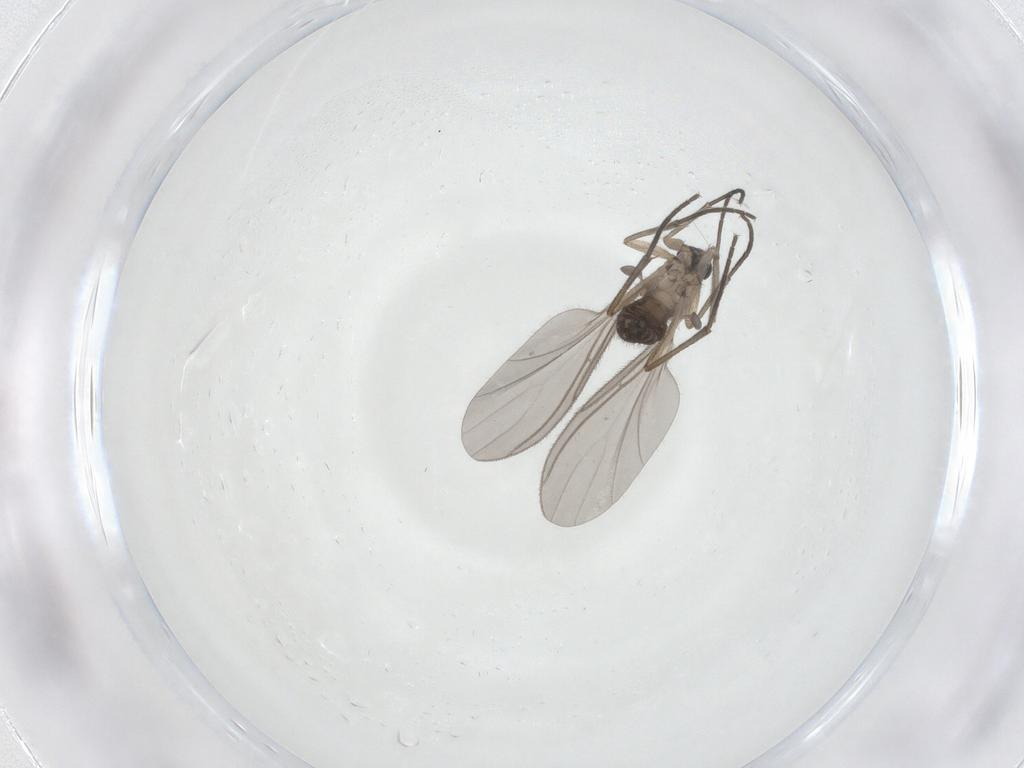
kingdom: Animalia
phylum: Arthropoda
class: Insecta
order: Diptera
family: Sciaridae
